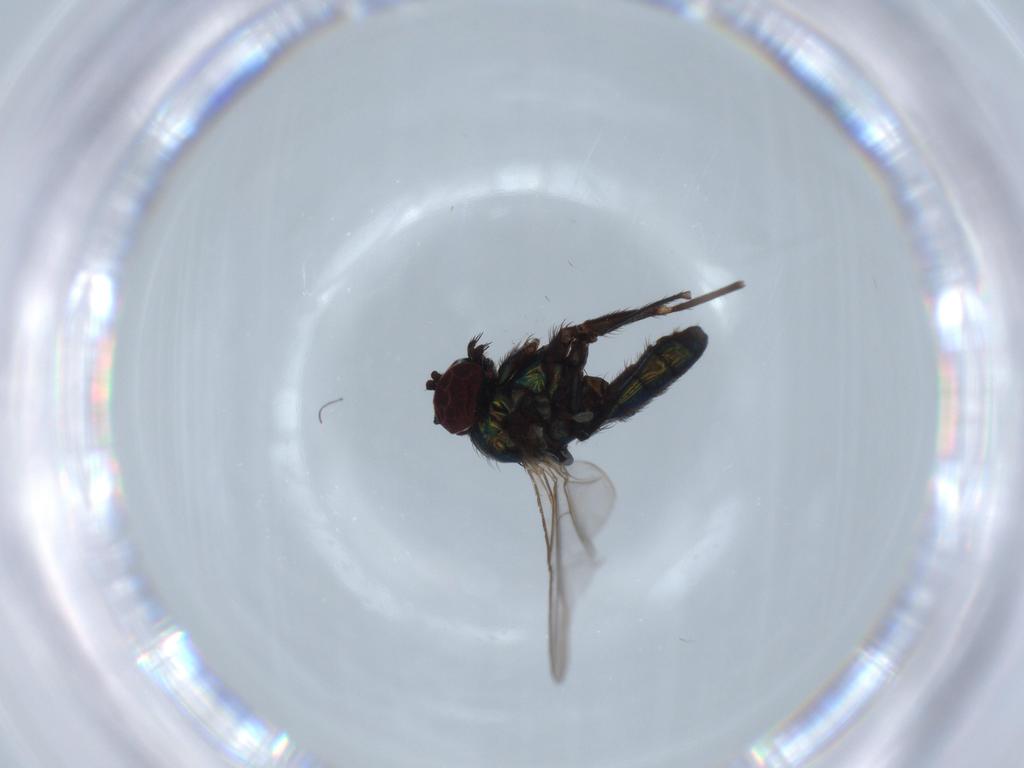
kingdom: Animalia
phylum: Arthropoda
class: Insecta
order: Diptera
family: Dolichopodidae
